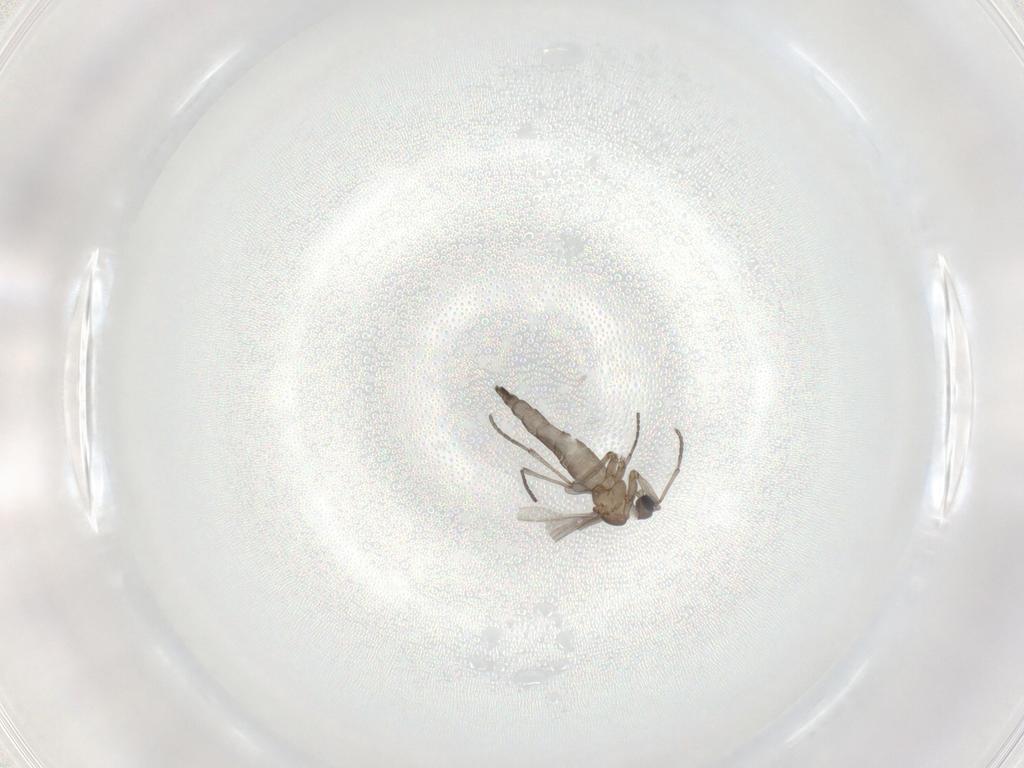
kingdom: Animalia
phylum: Arthropoda
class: Insecta
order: Diptera
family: Sciaridae
